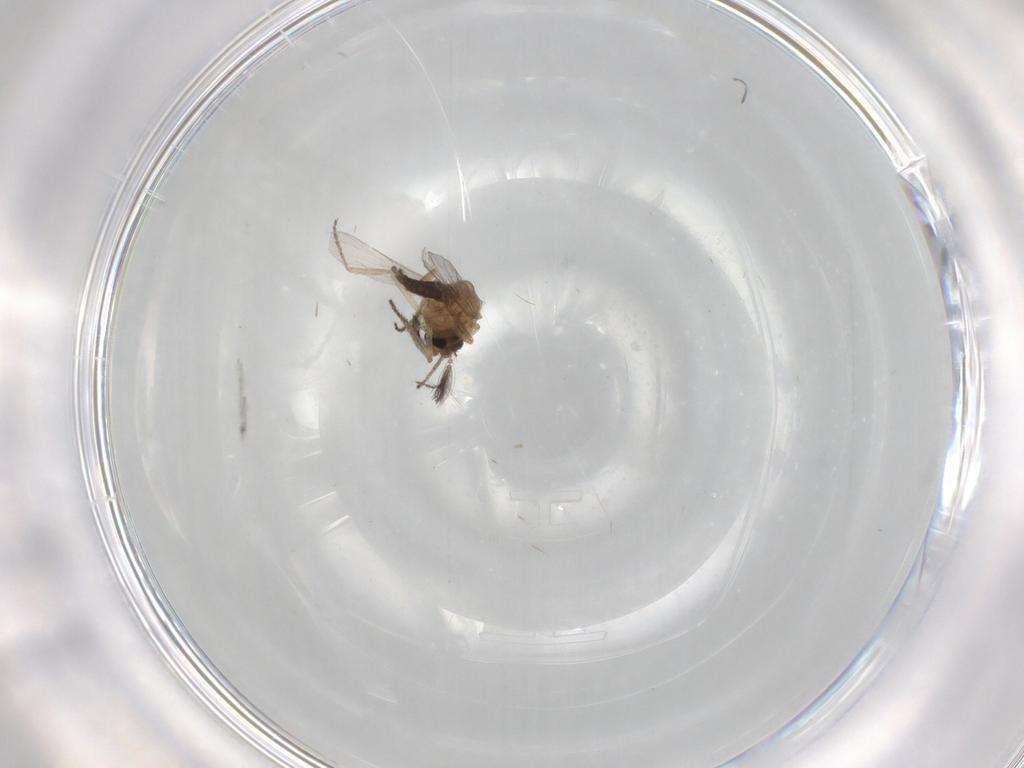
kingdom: Animalia
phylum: Arthropoda
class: Insecta
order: Diptera
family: Ceratopogonidae
